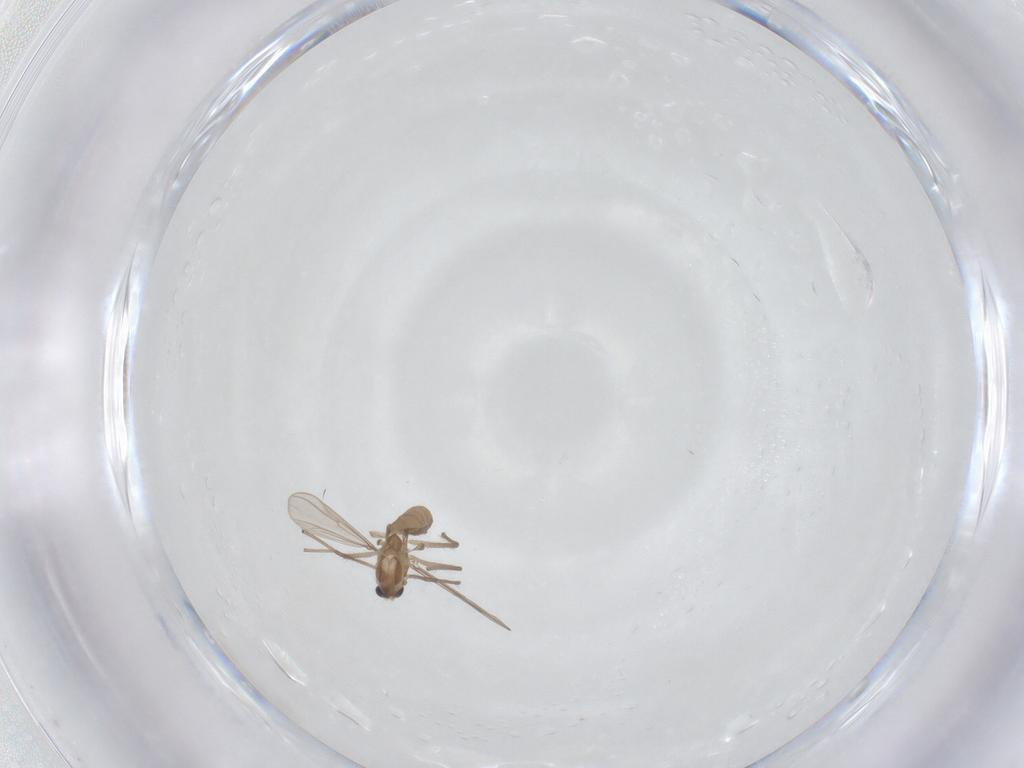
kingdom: Animalia
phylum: Arthropoda
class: Insecta
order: Diptera
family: Chironomidae
